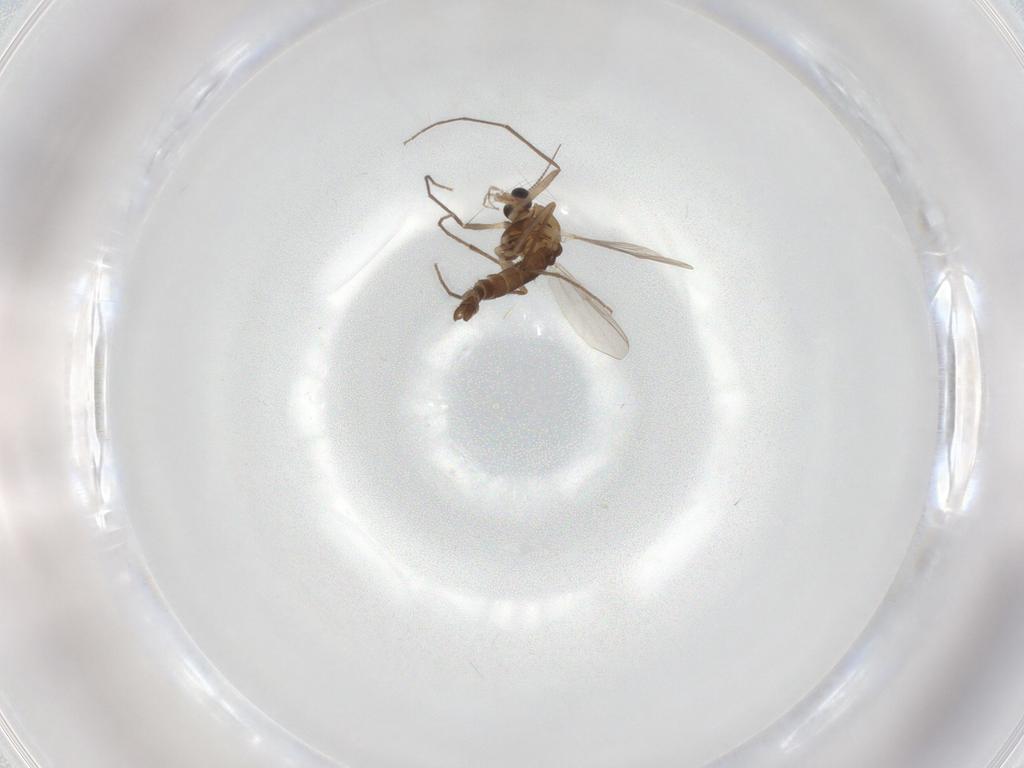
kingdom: Animalia
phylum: Arthropoda
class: Insecta
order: Diptera
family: Chironomidae
